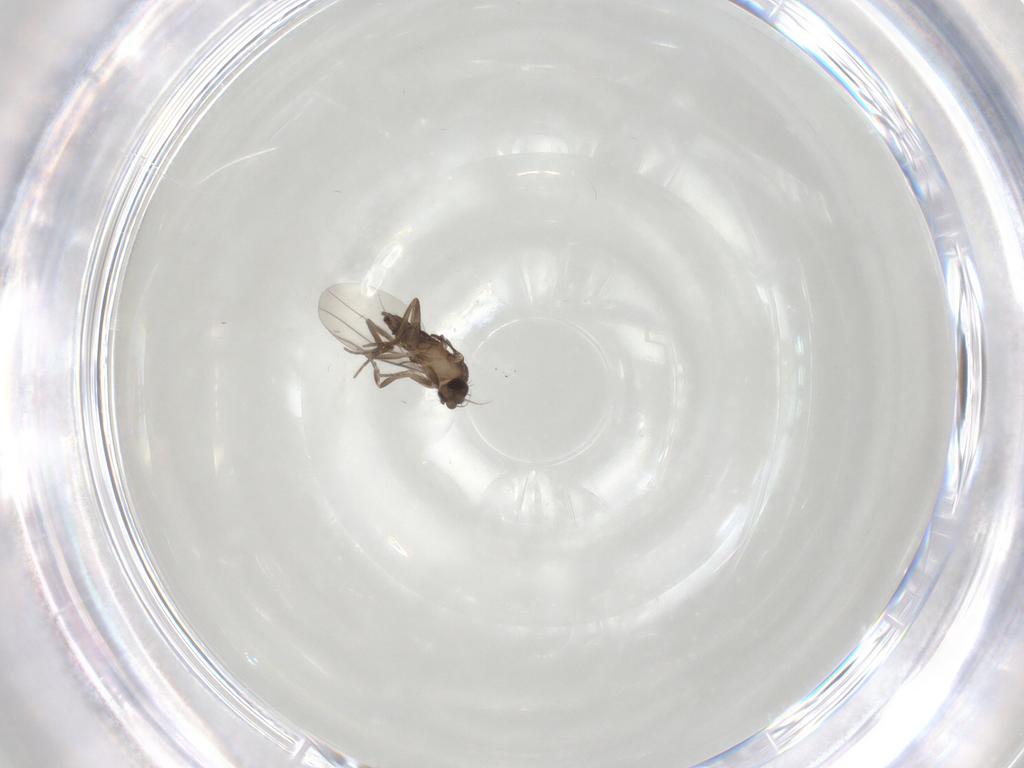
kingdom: Animalia
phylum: Arthropoda
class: Insecta
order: Diptera
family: Phoridae
